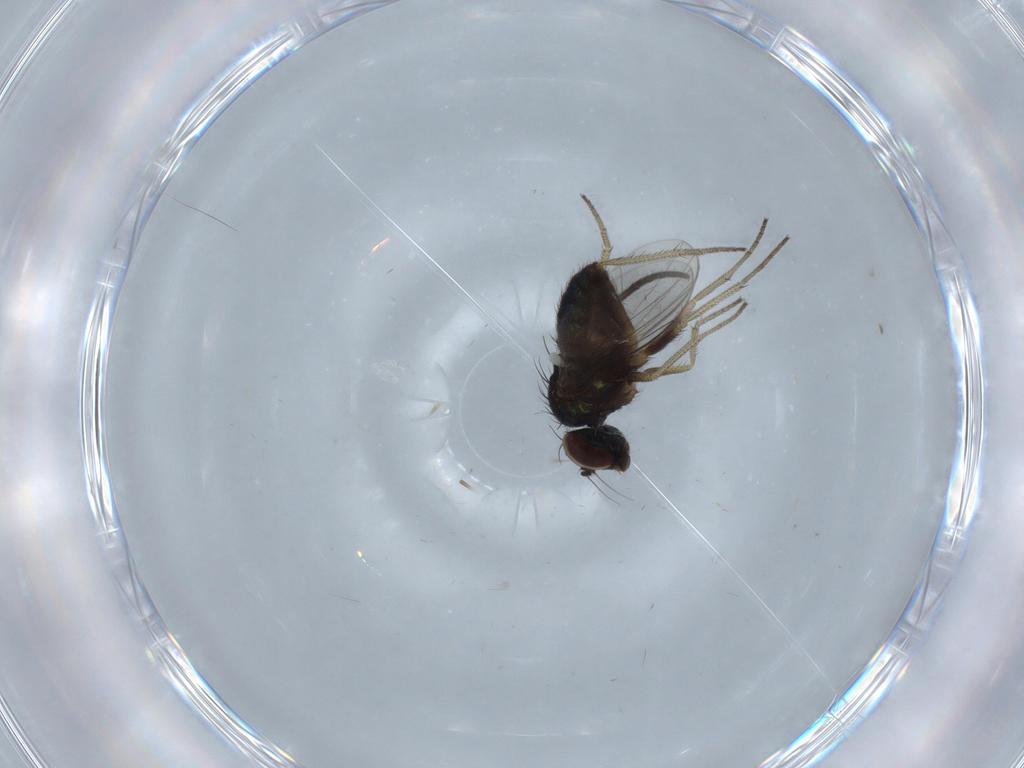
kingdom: Animalia
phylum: Arthropoda
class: Insecta
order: Diptera
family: Sciaridae
